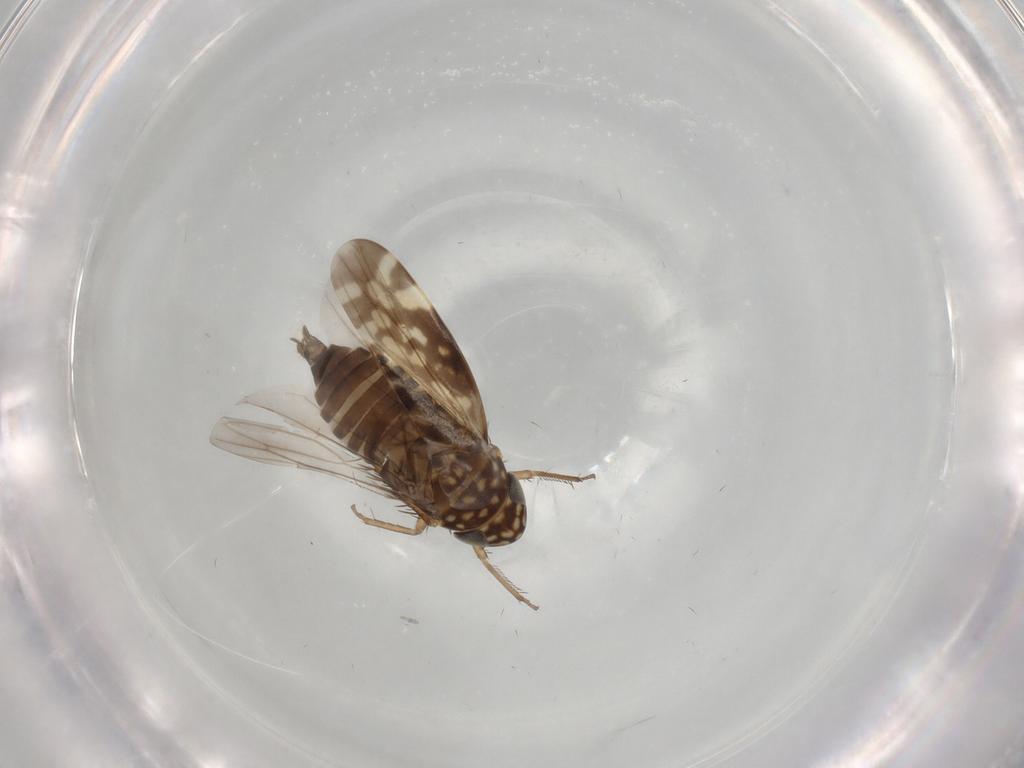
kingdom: Animalia
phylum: Arthropoda
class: Insecta
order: Hemiptera
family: Cicadellidae
